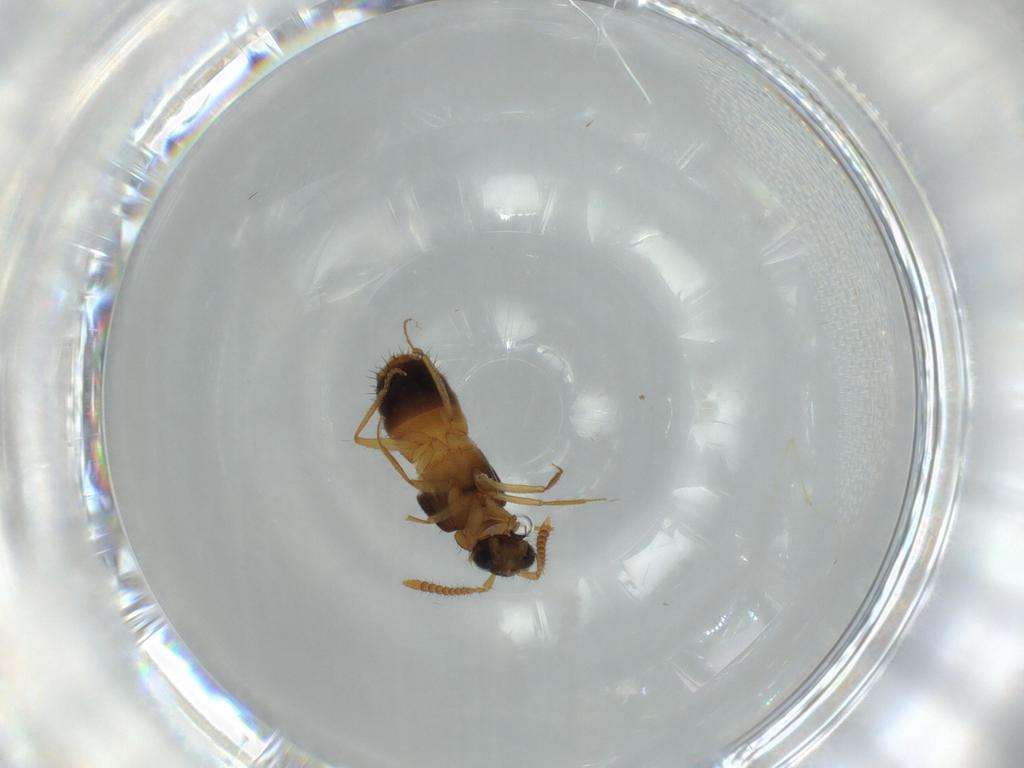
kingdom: Animalia
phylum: Arthropoda
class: Insecta
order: Coleoptera
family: Staphylinidae
